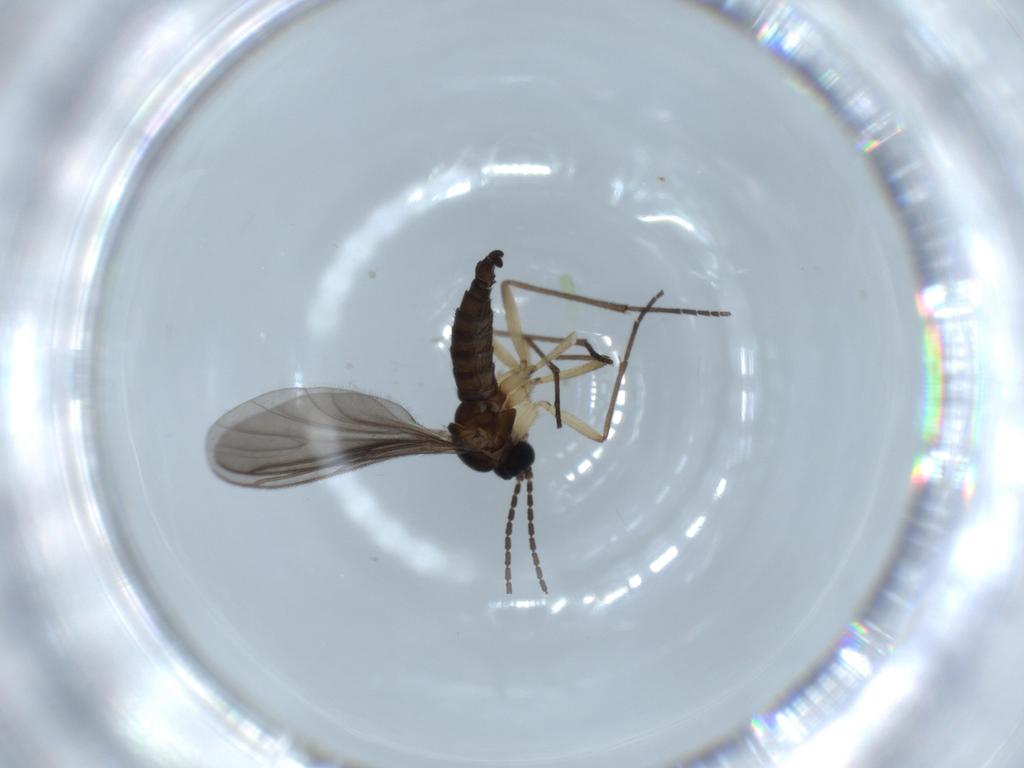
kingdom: Animalia
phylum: Arthropoda
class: Insecta
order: Diptera
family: Sciaridae
